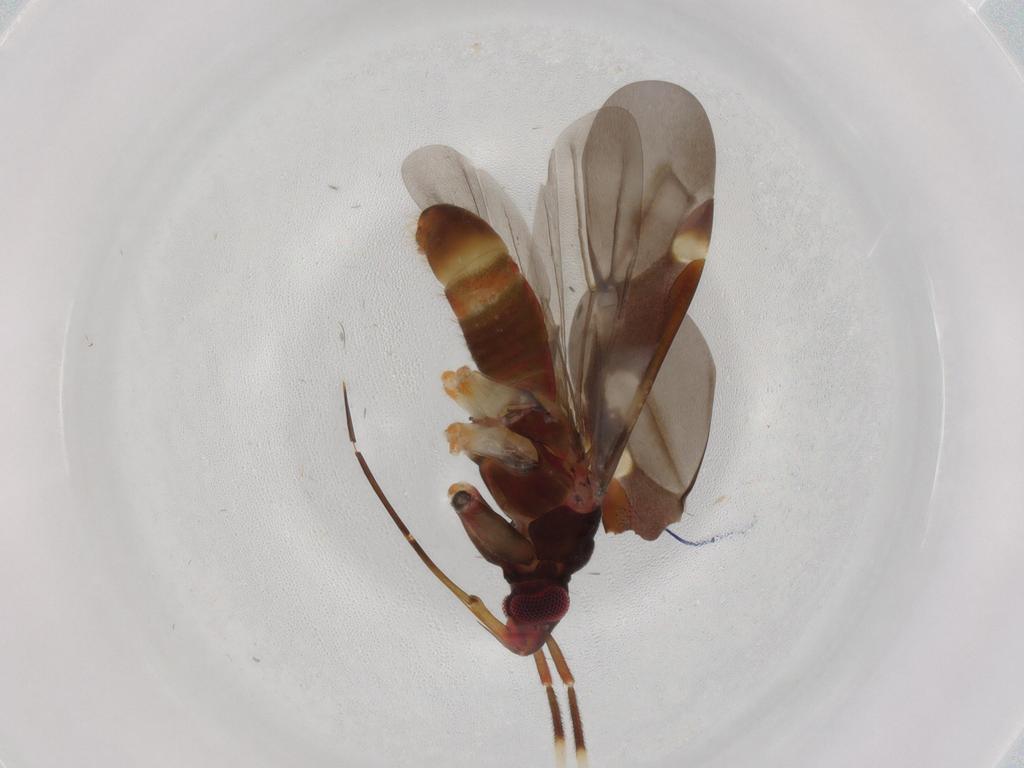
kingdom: Animalia
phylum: Arthropoda
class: Insecta
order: Hemiptera
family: Miridae
